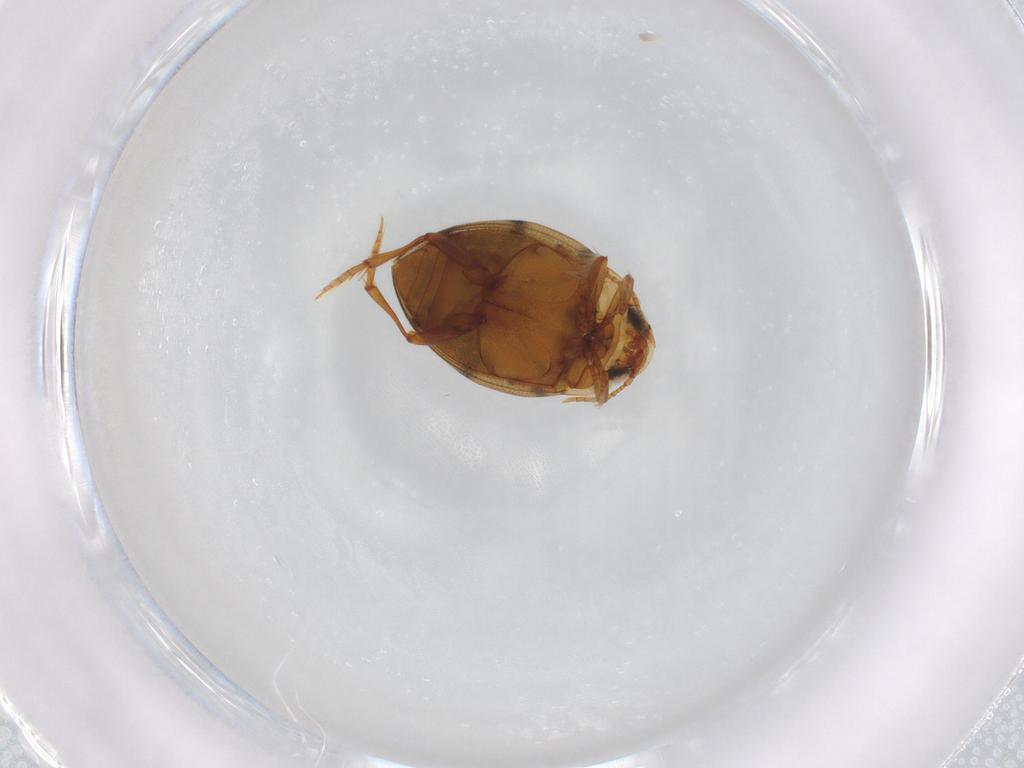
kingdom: Animalia
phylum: Arthropoda
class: Insecta
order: Coleoptera
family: Dytiscidae
